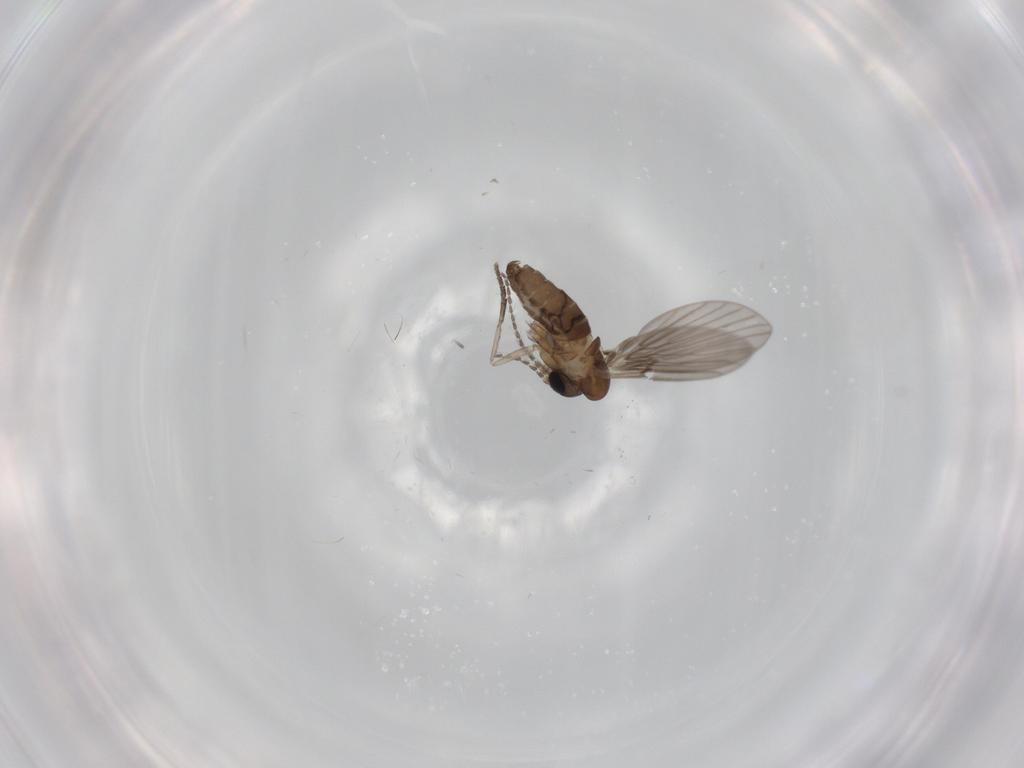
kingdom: Animalia
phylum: Arthropoda
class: Insecta
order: Diptera
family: Psychodidae
